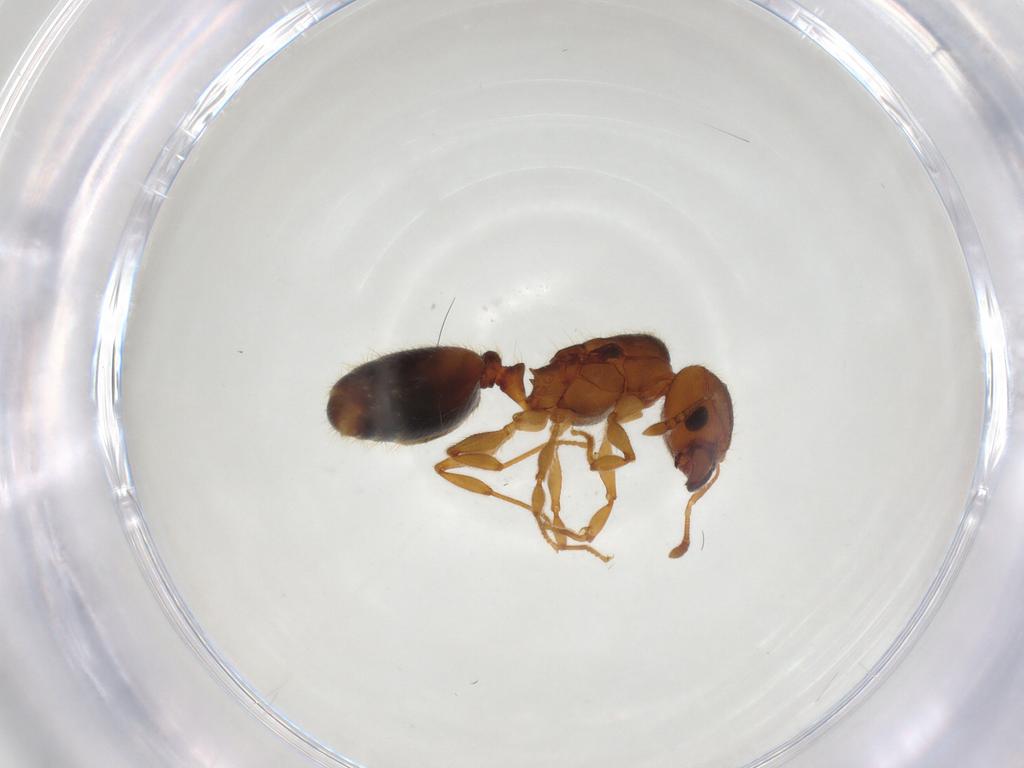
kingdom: Animalia
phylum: Arthropoda
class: Insecta
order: Hymenoptera
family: Formicidae
